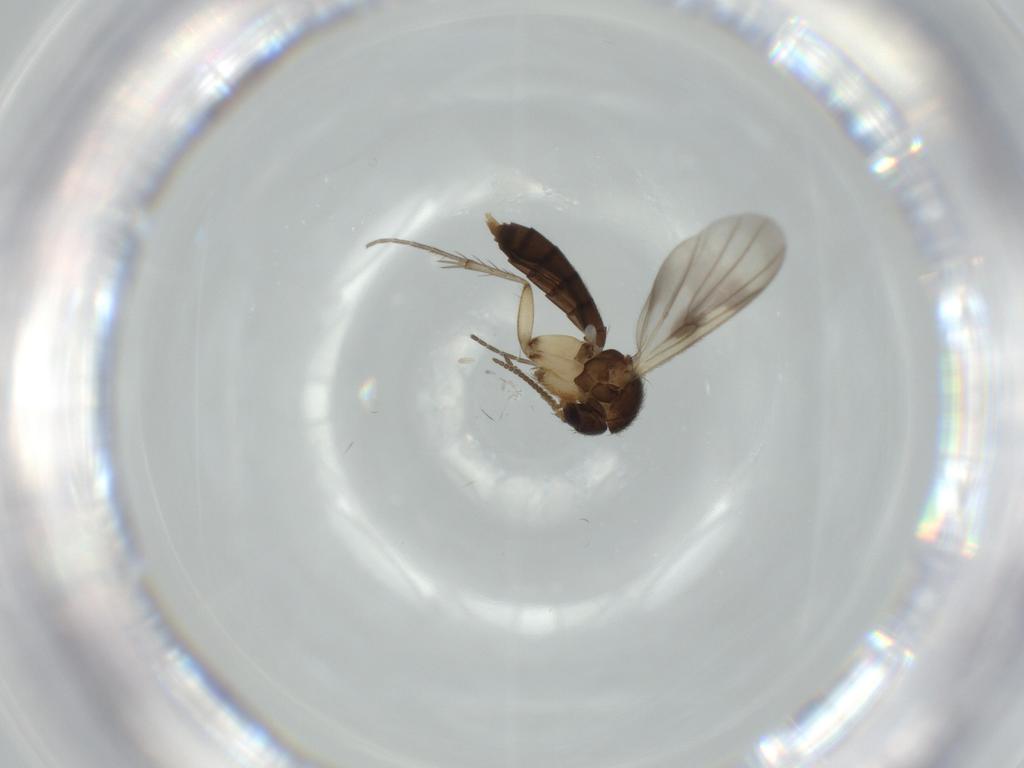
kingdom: Animalia
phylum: Arthropoda
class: Insecta
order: Diptera
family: Mycetophilidae
